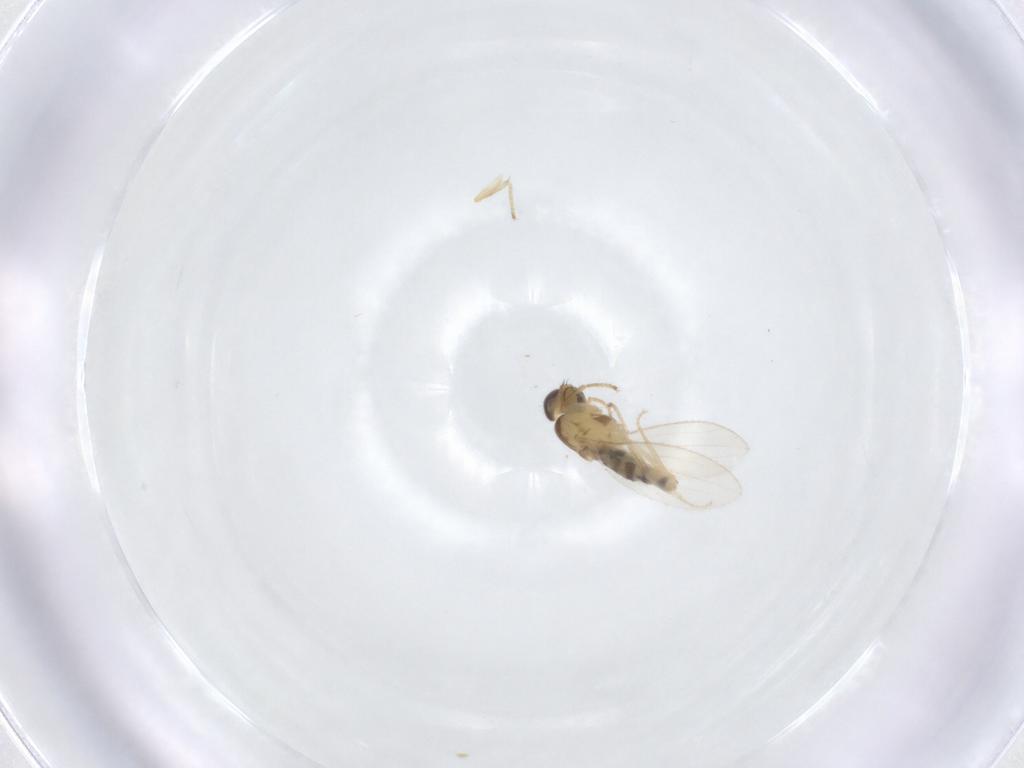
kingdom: Animalia
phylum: Arthropoda
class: Insecta
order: Diptera
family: Periscelididae
